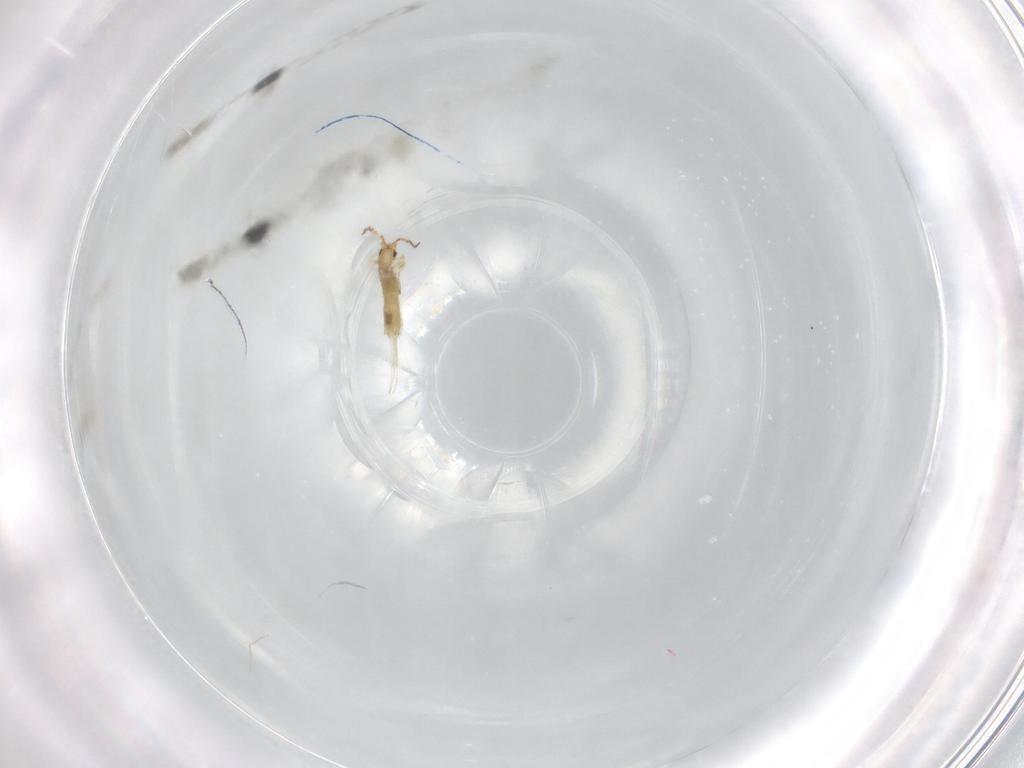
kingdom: Animalia
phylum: Arthropoda
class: Collembola
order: Entomobryomorpha
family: Entomobryidae
